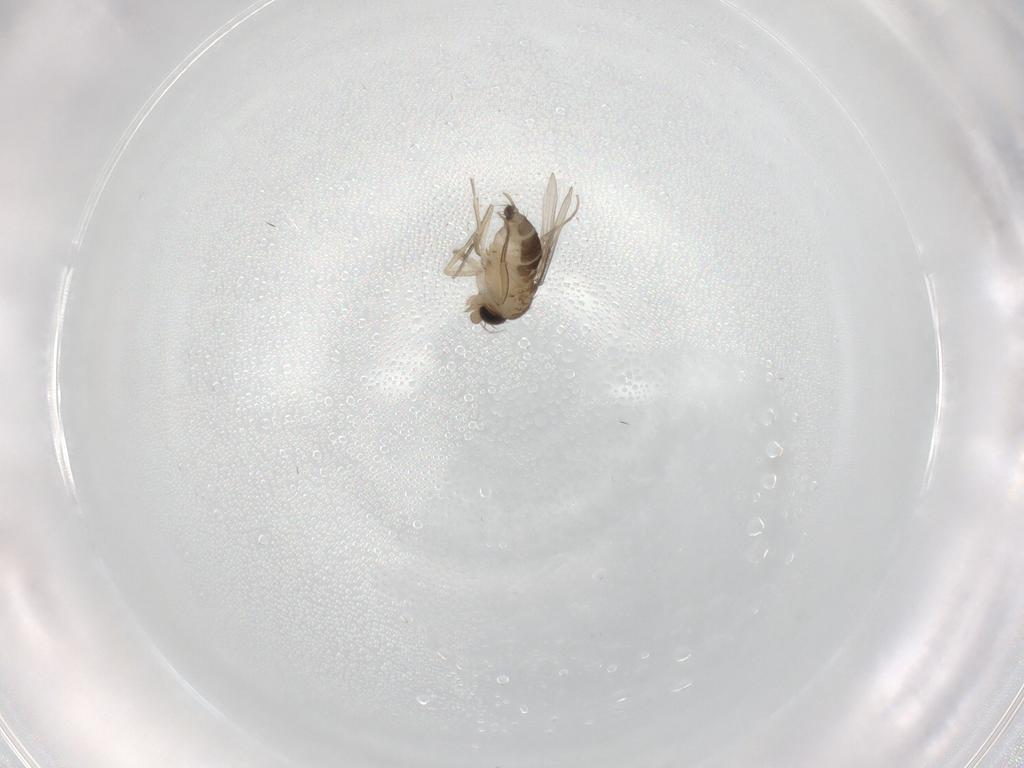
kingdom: Animalia
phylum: Arthropoda
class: Insecta
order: Diptera
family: Phoridae
